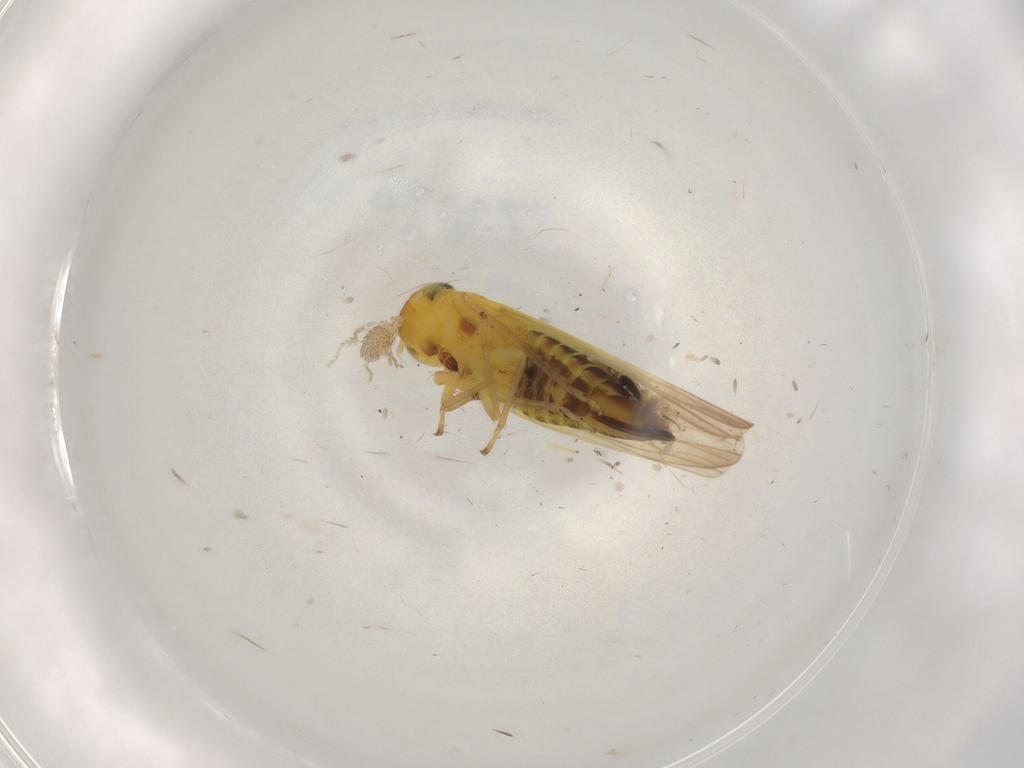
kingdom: Animalia
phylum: Arthropoda
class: Insecta
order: Hemiptera
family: Cicadellidae
